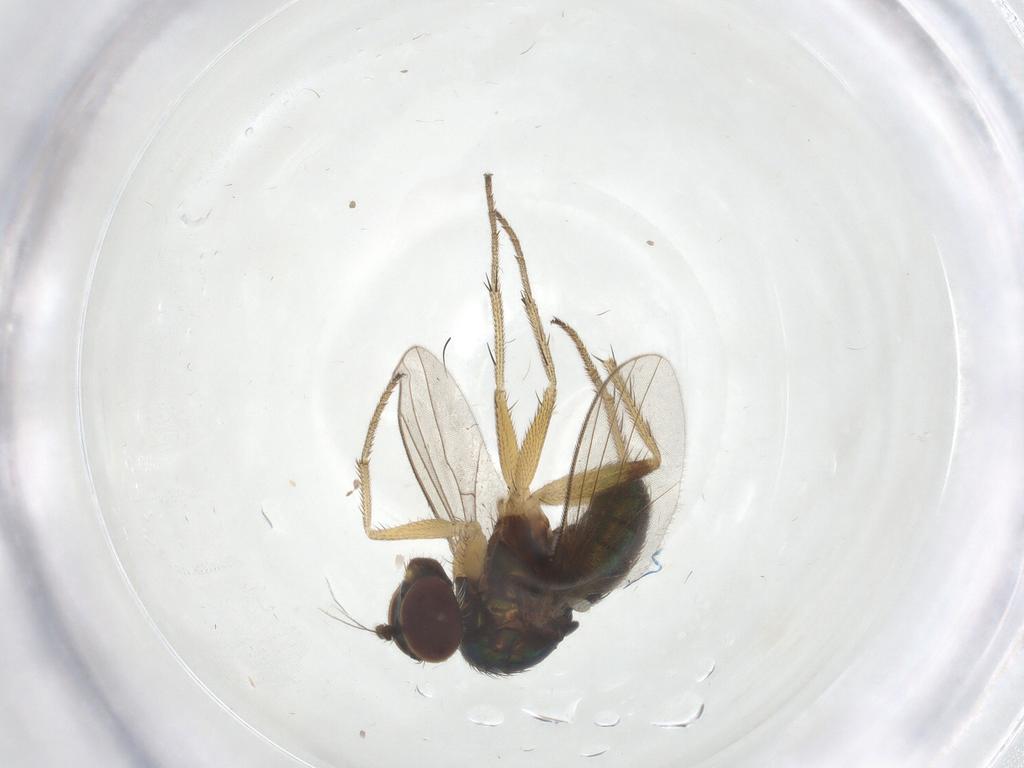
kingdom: Animalia
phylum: Arthropoda
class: Insecta
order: Diptera
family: Dolichopodidae
